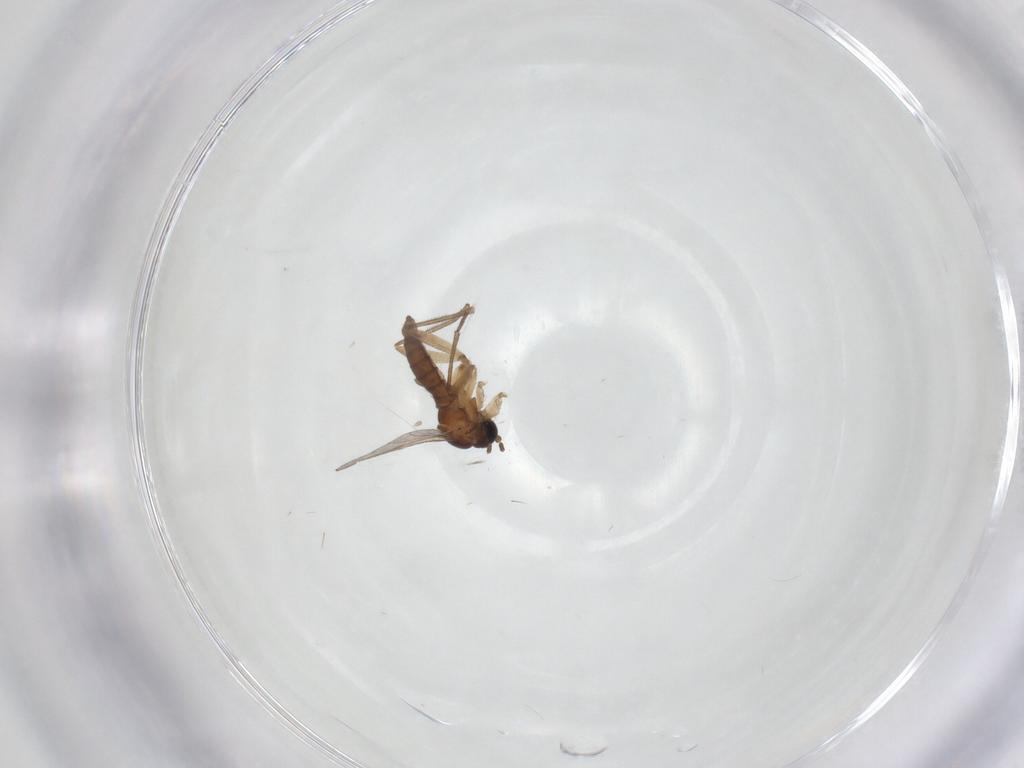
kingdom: Animalia
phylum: Arthropoda
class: Insecta
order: Diptera
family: Sciaridae
